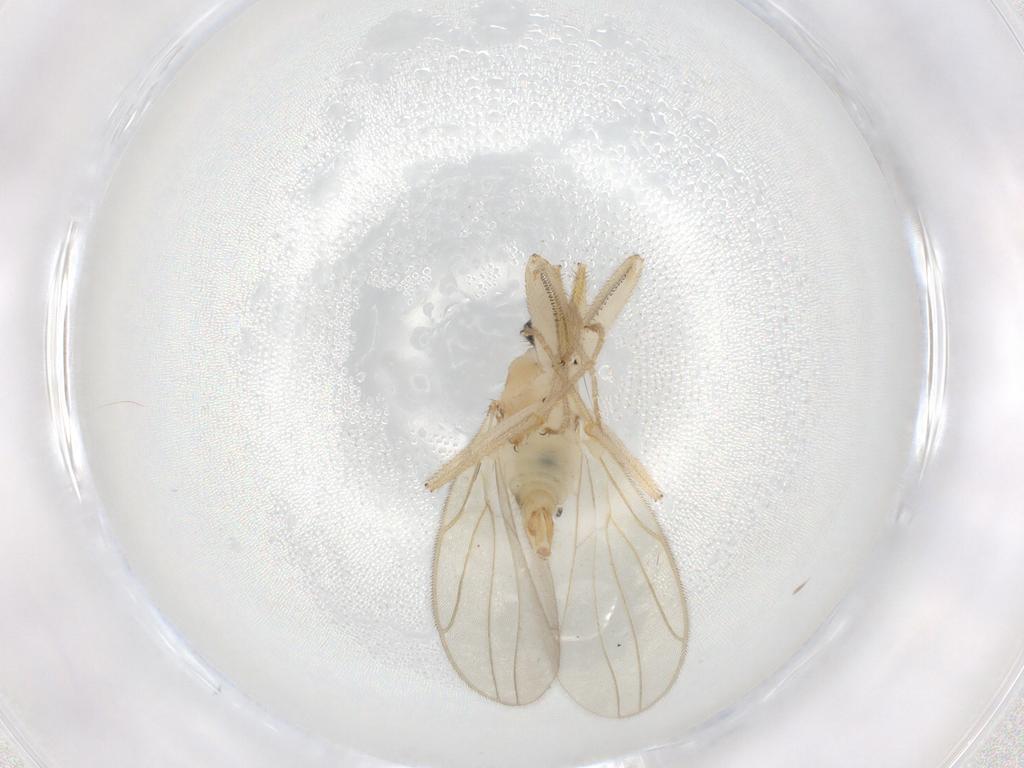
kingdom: Animalia
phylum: Arthropoda
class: Insecta
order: Diptera
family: Hybotidae
